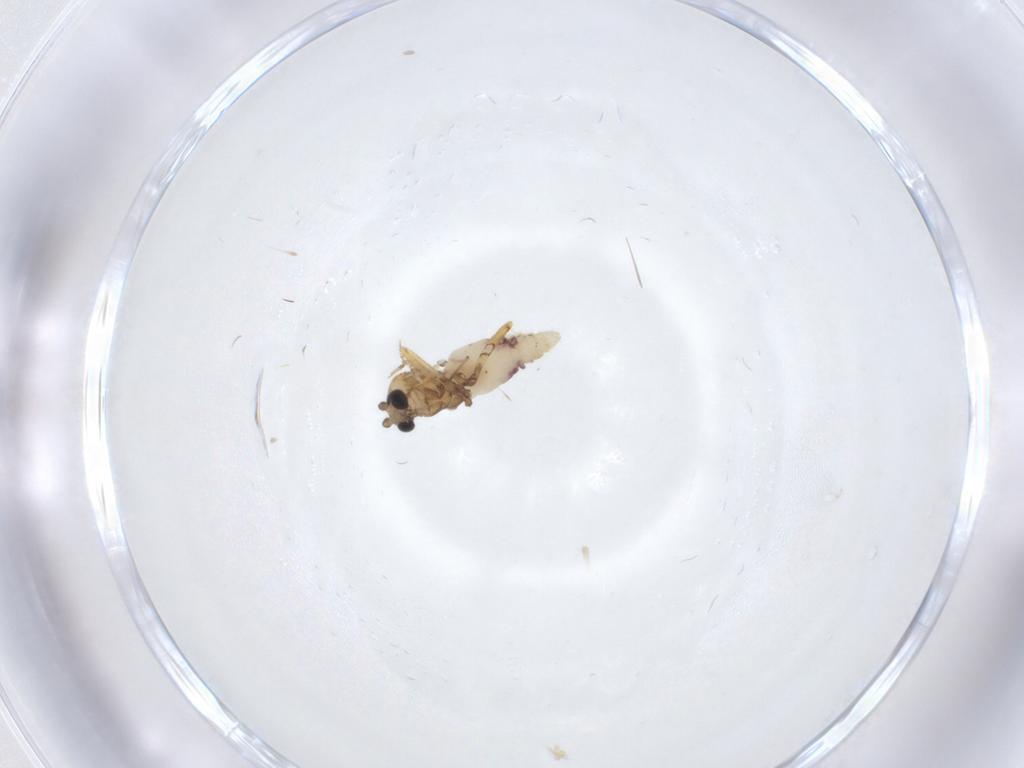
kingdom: Animalia
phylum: Arthropoda
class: Insecta
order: Diptera
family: Ceratopogonidae
